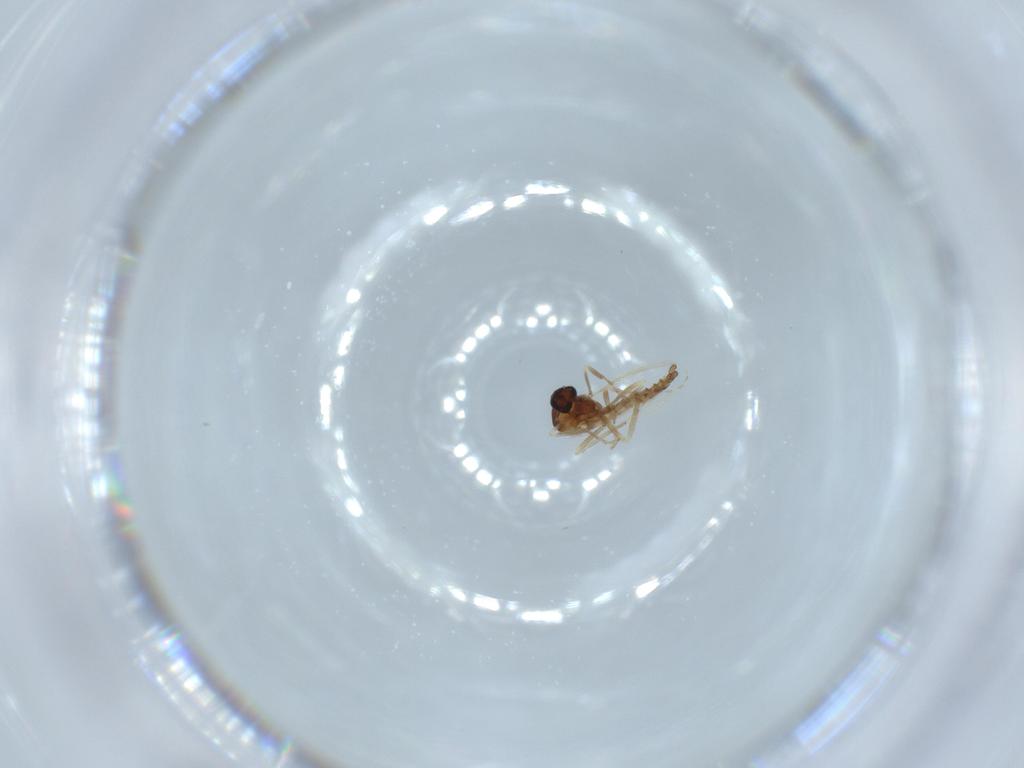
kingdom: Animalia
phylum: Arthropoda
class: Insecta
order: Diptera
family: Ceratopogonidae
